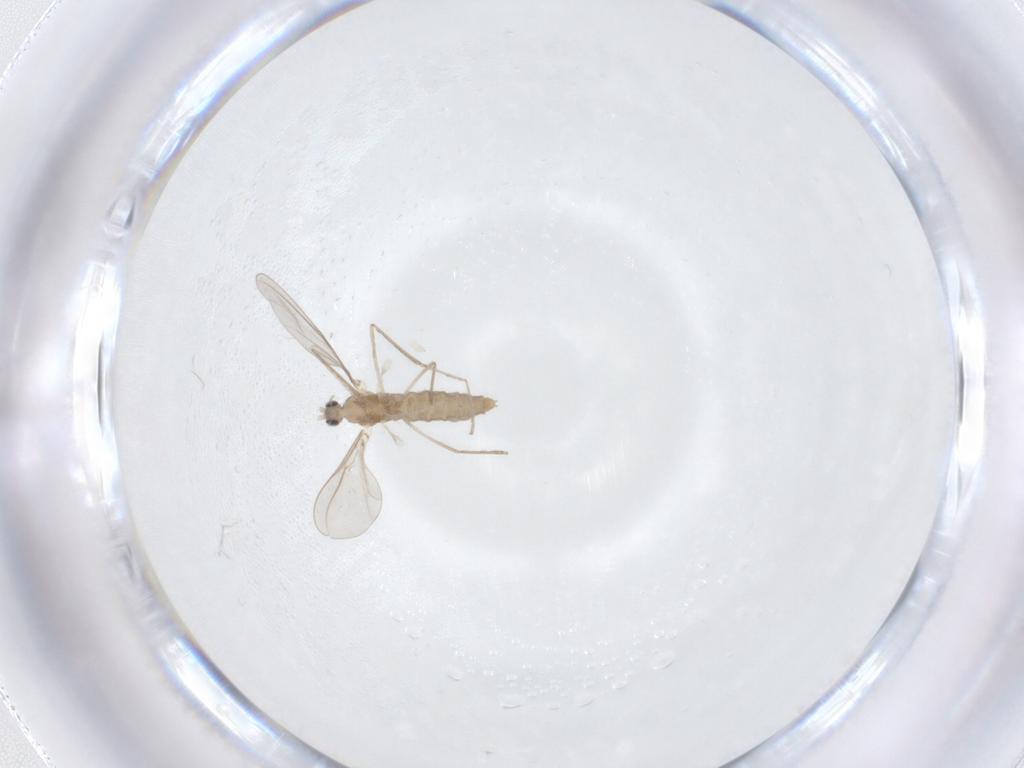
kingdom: Animalia
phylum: Arthropoda
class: Insecta
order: Diptera
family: Cecidomyiidae
